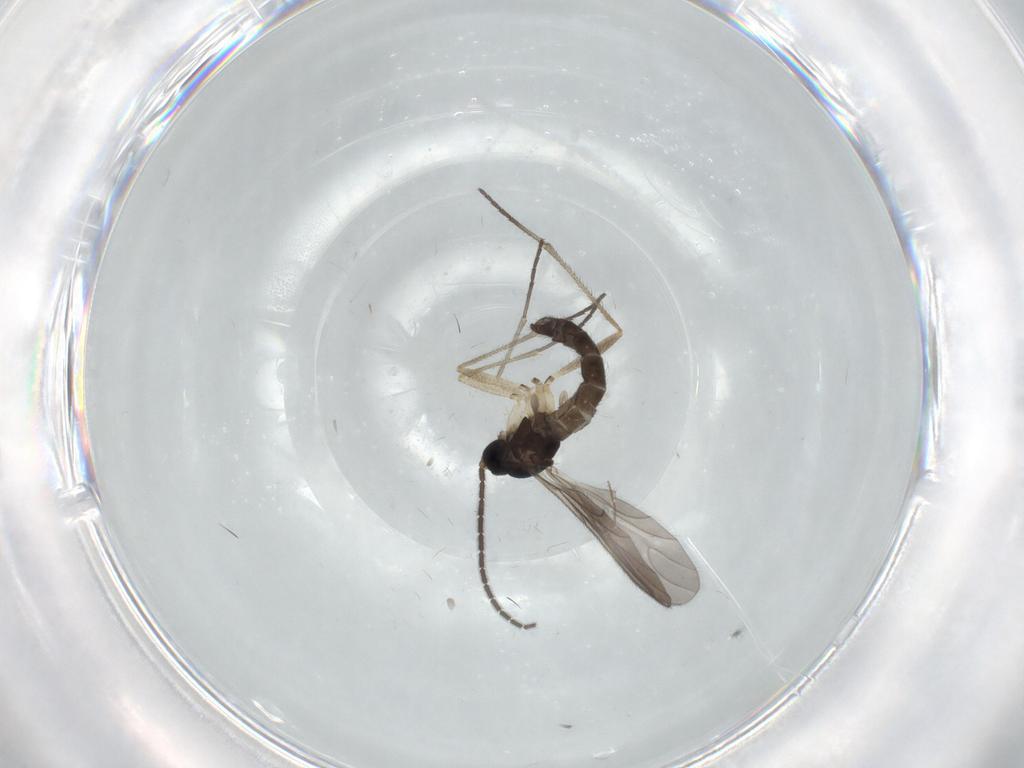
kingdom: Animalia
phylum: Arthropoda
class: Insecta
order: Diptera
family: Sciaridae
